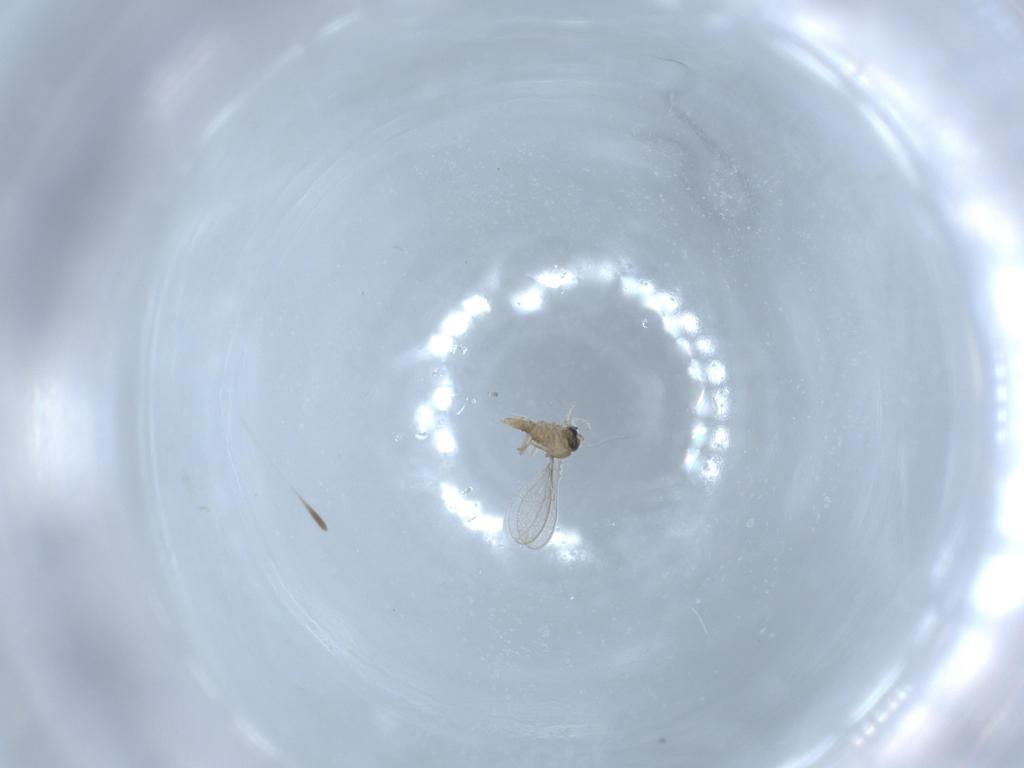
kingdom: Animalia
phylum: Arthropoda
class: Insecta
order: Diptera
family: Cecidomyiidae
